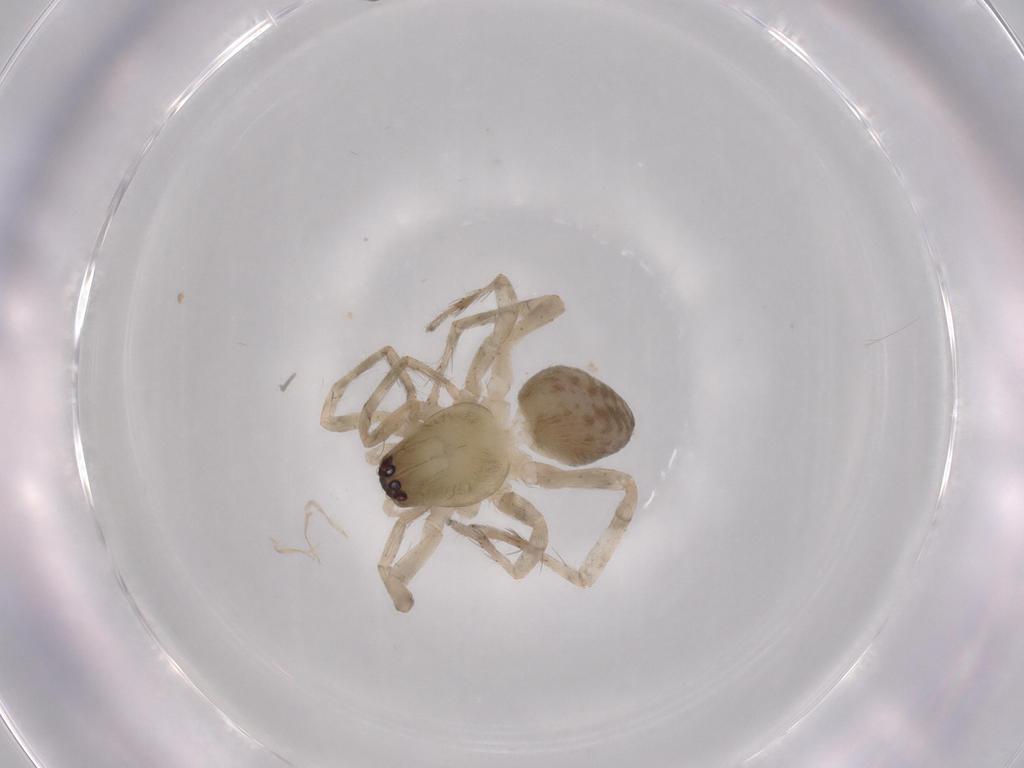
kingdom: Animalia
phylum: Arthropoda
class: Arachnida
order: Araneae
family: Amaurobiidae
